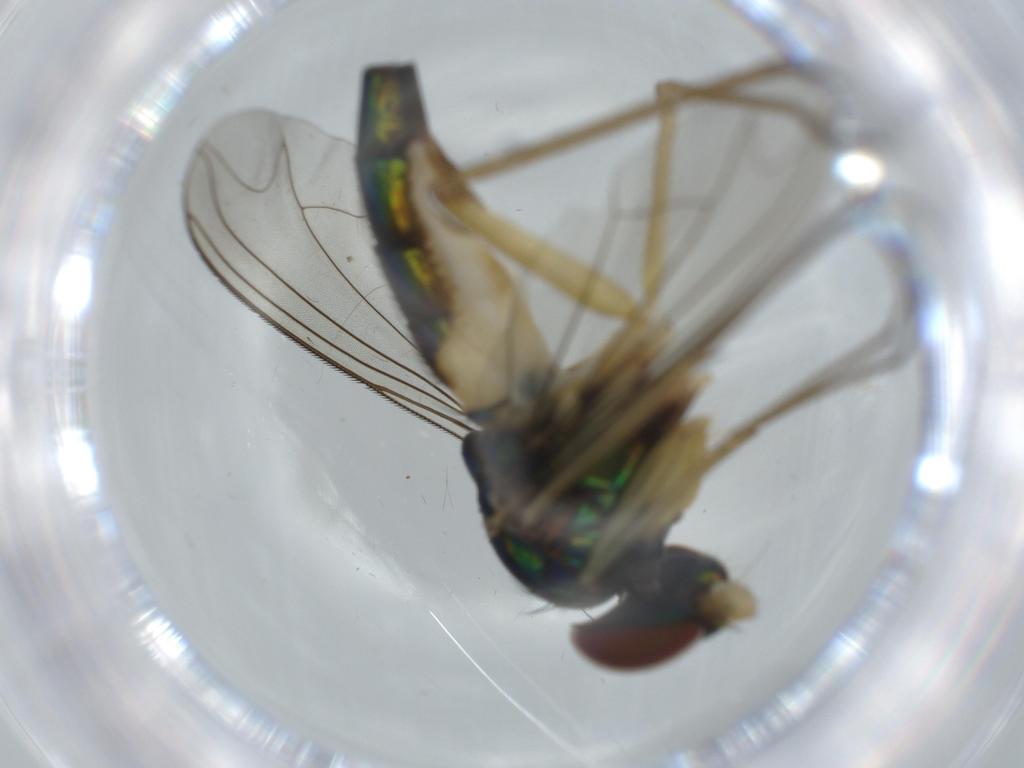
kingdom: Animalia
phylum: Arthropoda
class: Insecta
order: Diptera
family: Dolichopodidae
